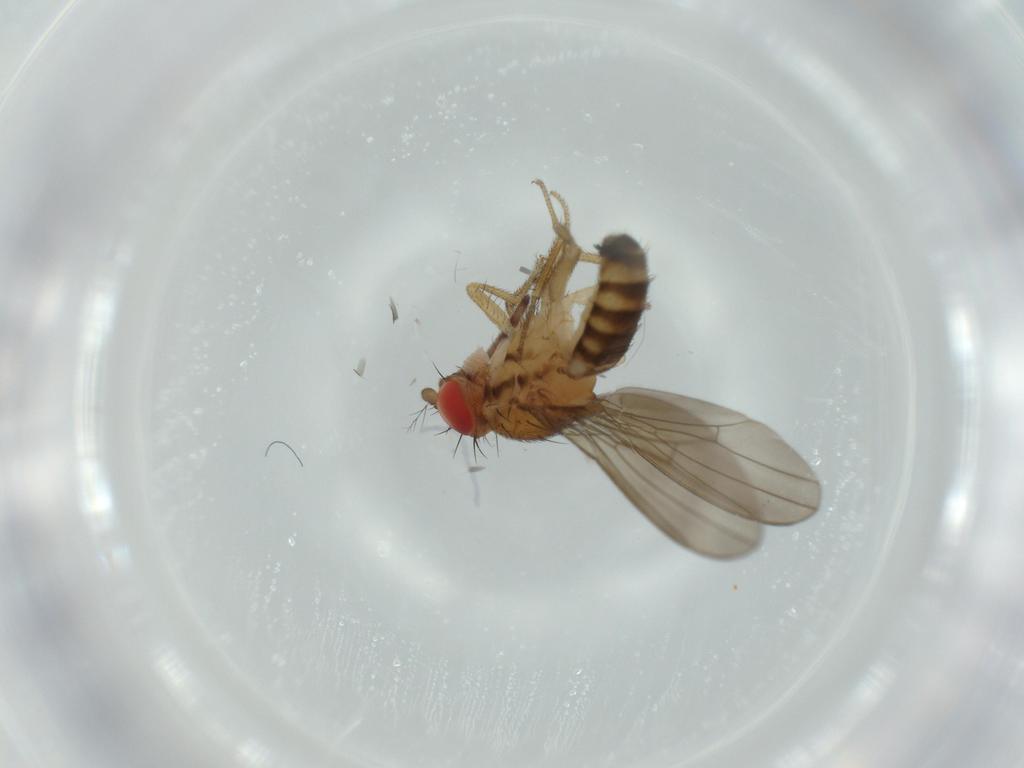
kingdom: Animalia
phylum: Arthropoda
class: Insecta
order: Diptera
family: Drosophilidae
